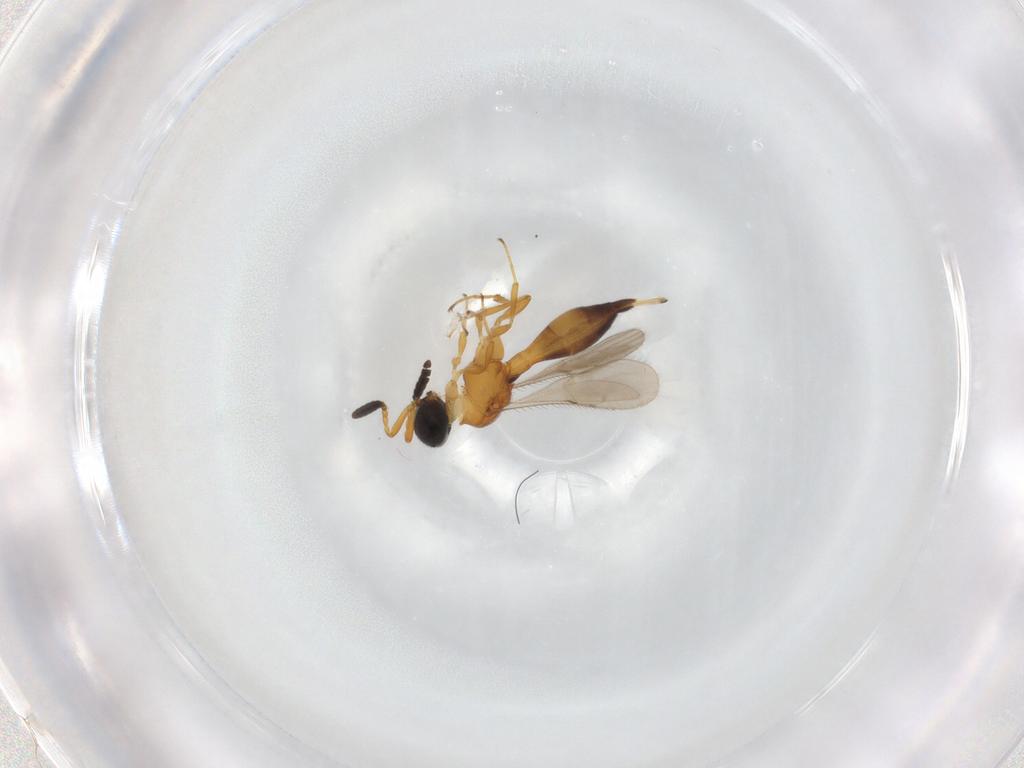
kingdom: Animalia
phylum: Arthropoda
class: Insecta
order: Hymenoptera
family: Scelionidae
